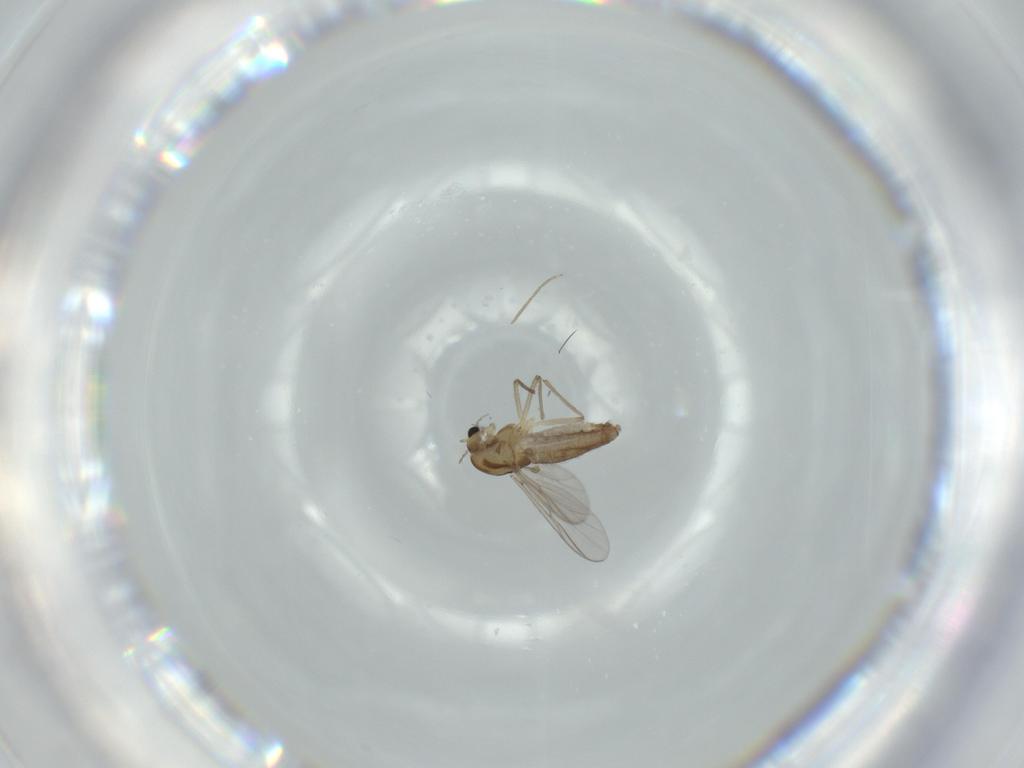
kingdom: Animalia
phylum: Arthropoda
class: Insecta
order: Diptera
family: Chironomidae
